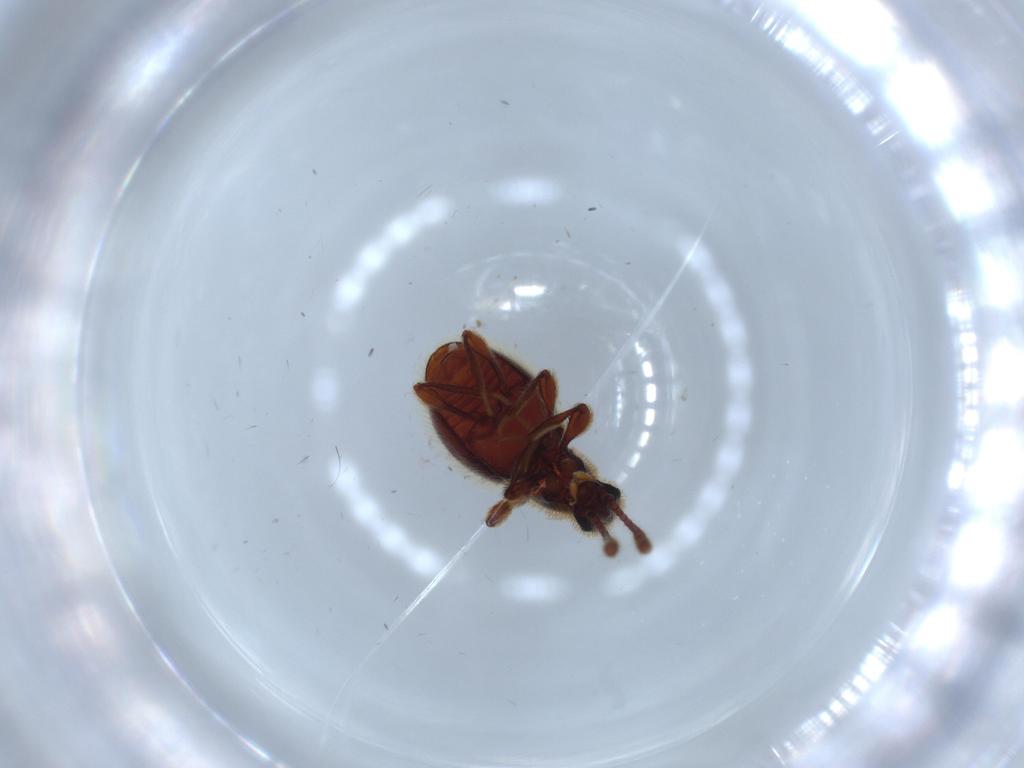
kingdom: Animalia
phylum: Arthropoda
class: Insecta
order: Coleoptera
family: Staphylinidae
